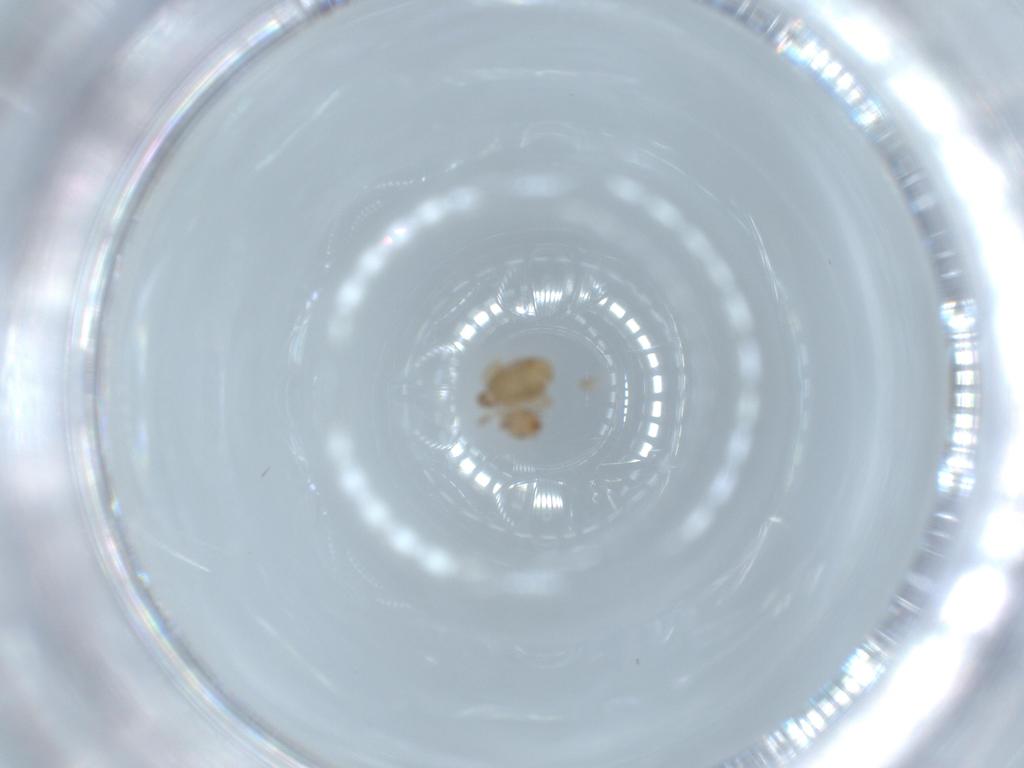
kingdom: Animalia
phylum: Arthropoda
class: Insecta
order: Psocodea
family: Liposcelididae
